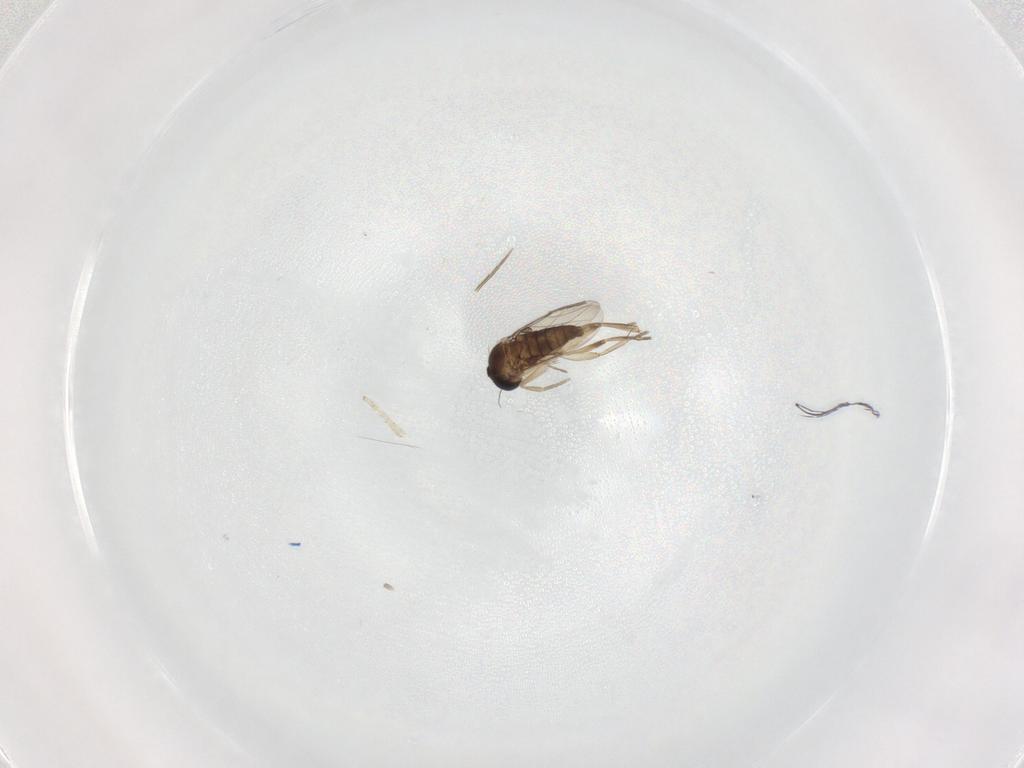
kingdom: Animalia
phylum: Arthropoda
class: Insecta
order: Diptera
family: Phoridae
